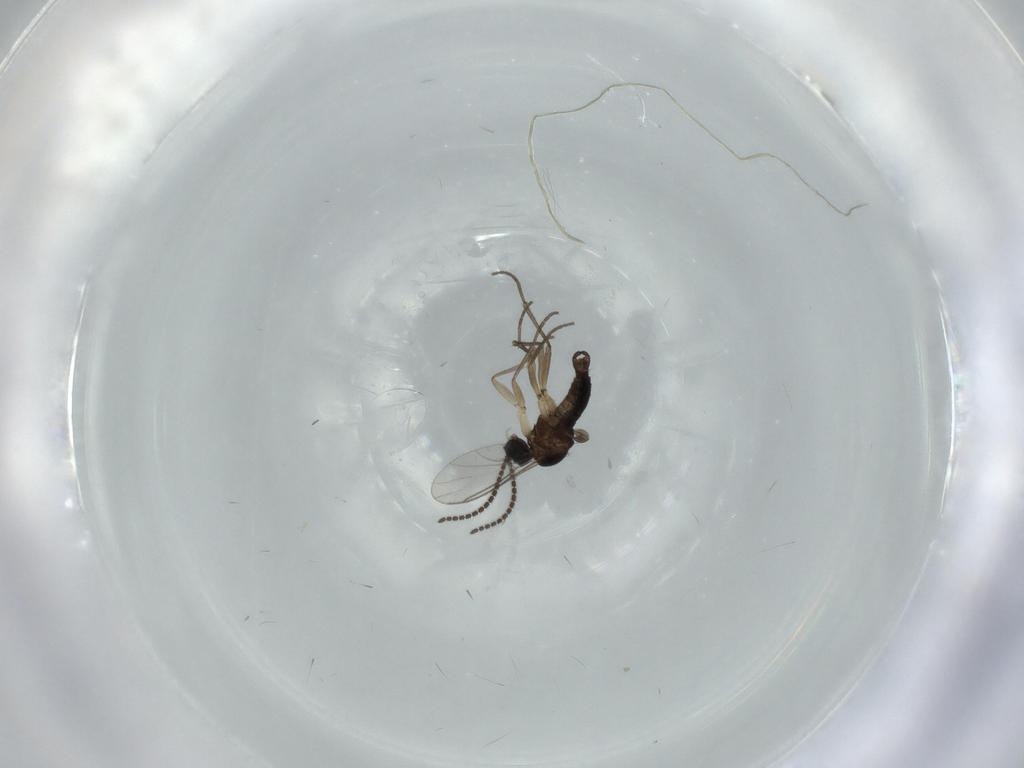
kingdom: Animalia
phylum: Arthropoda
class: Insecta
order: Diptera
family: Sciaridae
